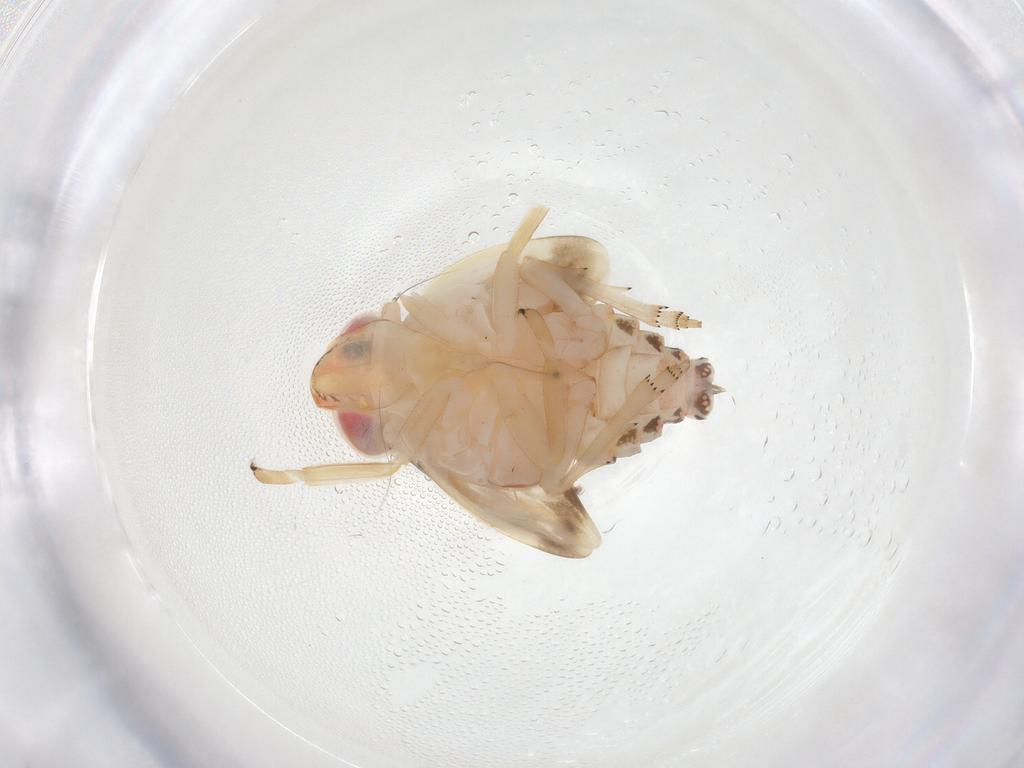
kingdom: Animalia
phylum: Arthropoda
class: Insecta
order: Hemiptera
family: Nogodinidae
